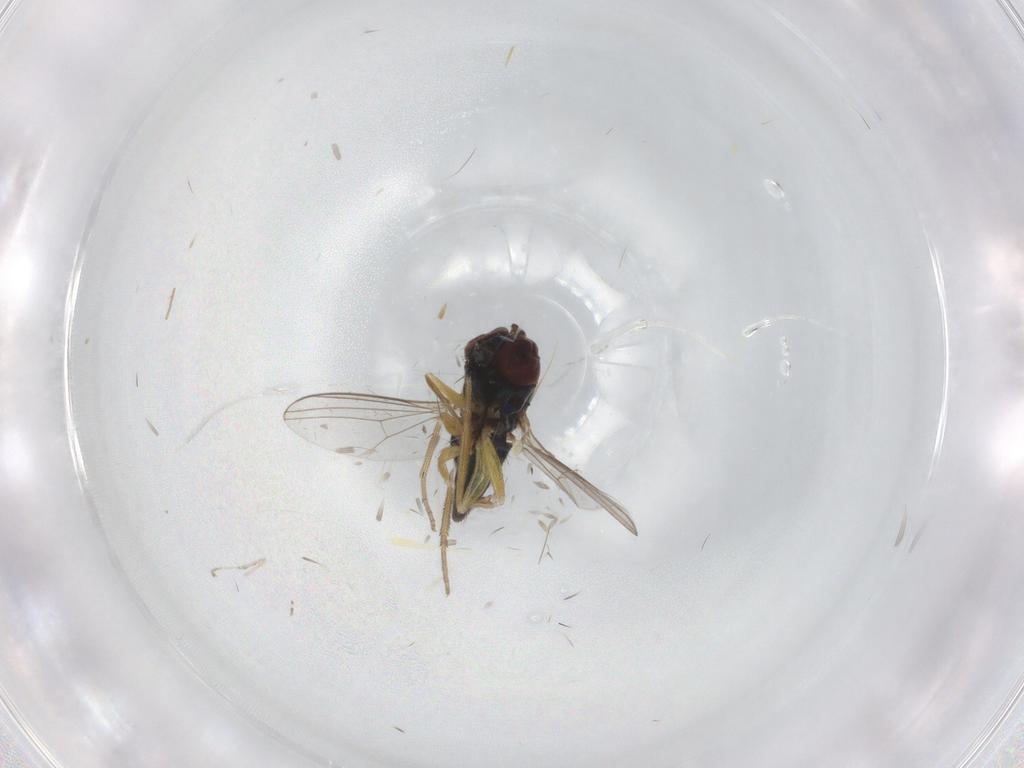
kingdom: Animalia
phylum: Arthropoda
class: Insecta
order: Diptera
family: Dolichopodidae
